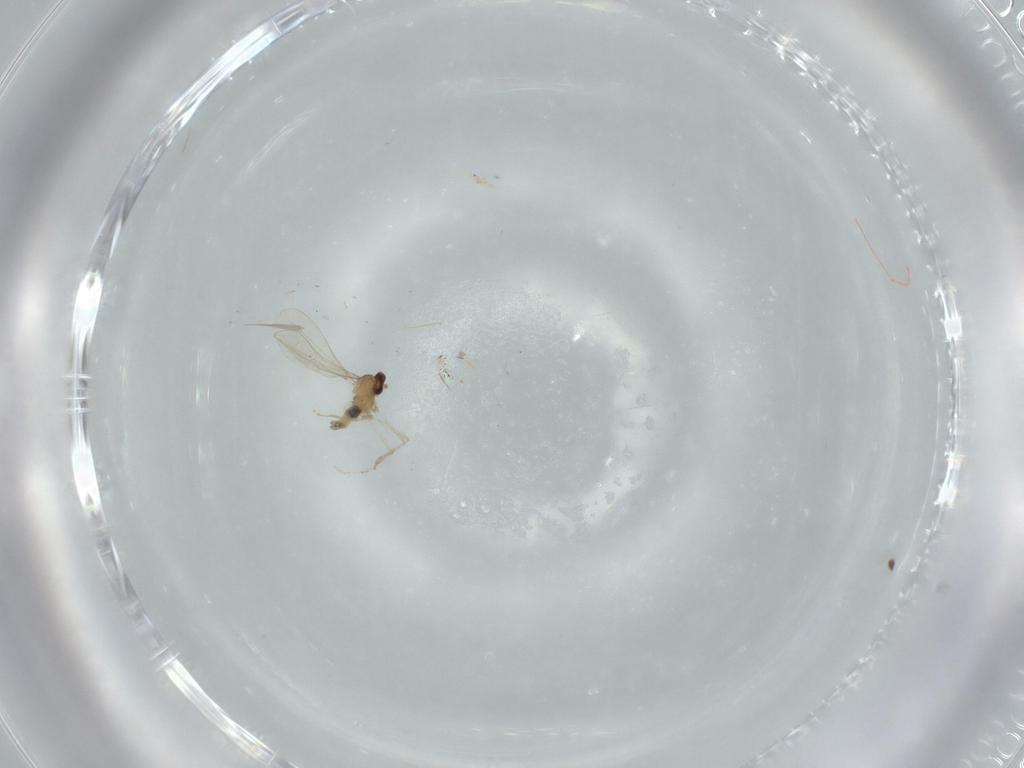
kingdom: Animalia
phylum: Arthropoda
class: Insecta
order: Diptera
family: Cecidomyiidae
